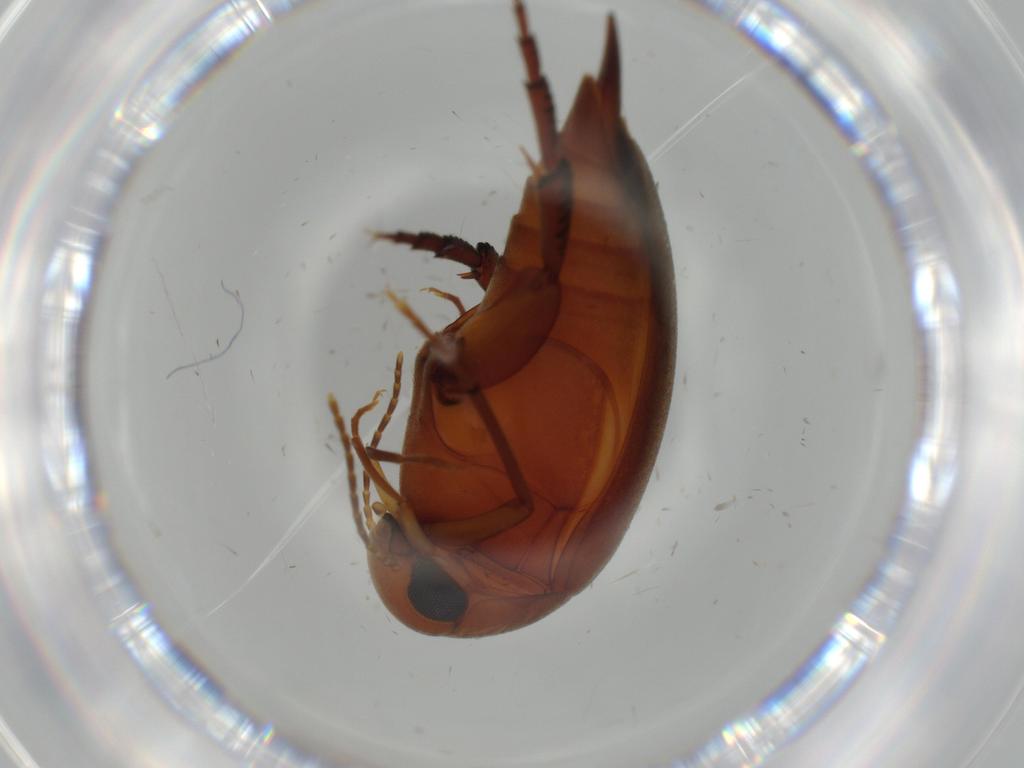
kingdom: Animalia
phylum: Arthropoda
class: Insecta
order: Coleoptera
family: Mordellidae
